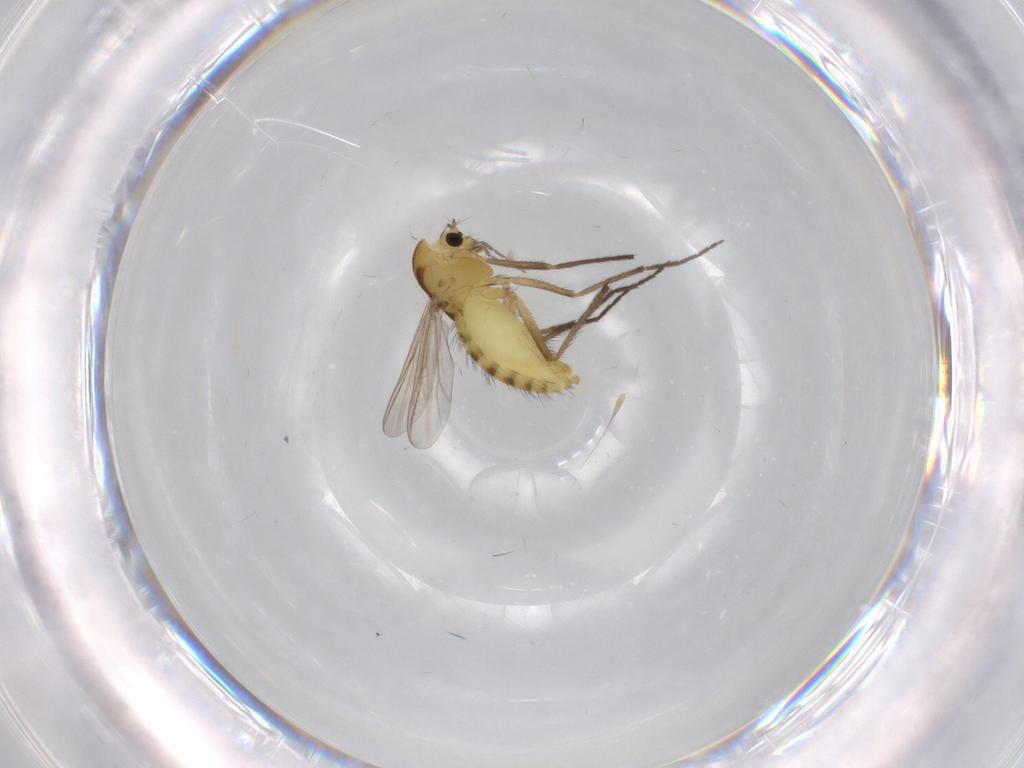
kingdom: Animalia
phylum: Arthropoda
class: Insecta
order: Diptera
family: Chironomidae
